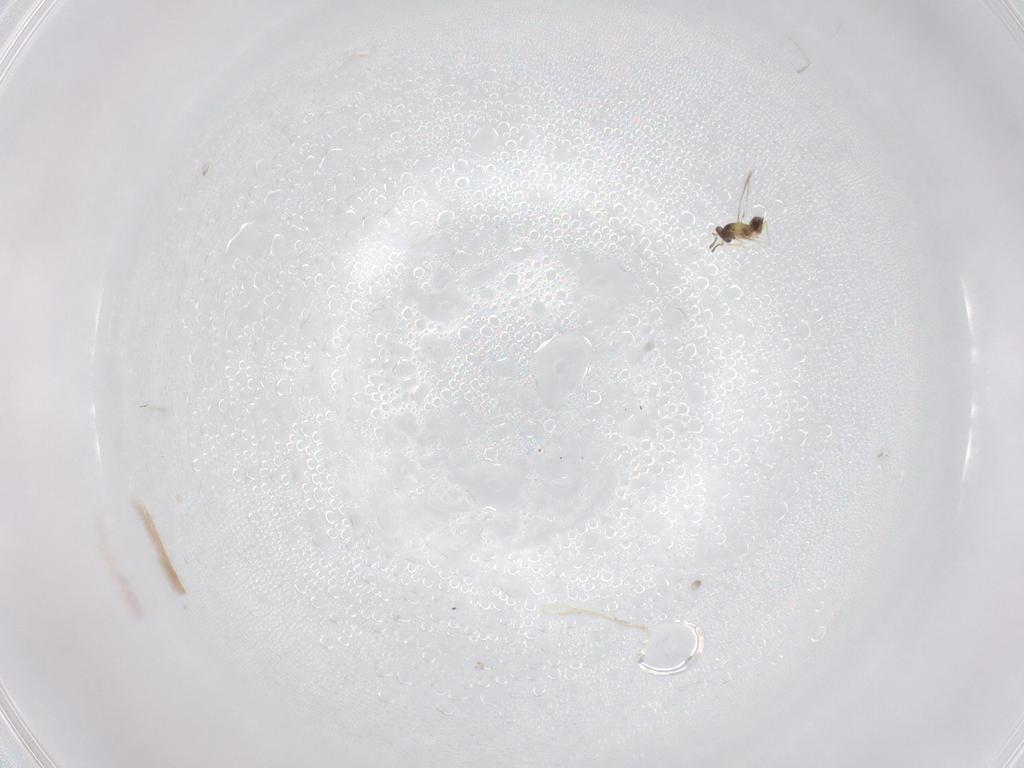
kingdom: Animalia
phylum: Arthropoda
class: Insecta
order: Hymenoptera
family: Mymaridae
